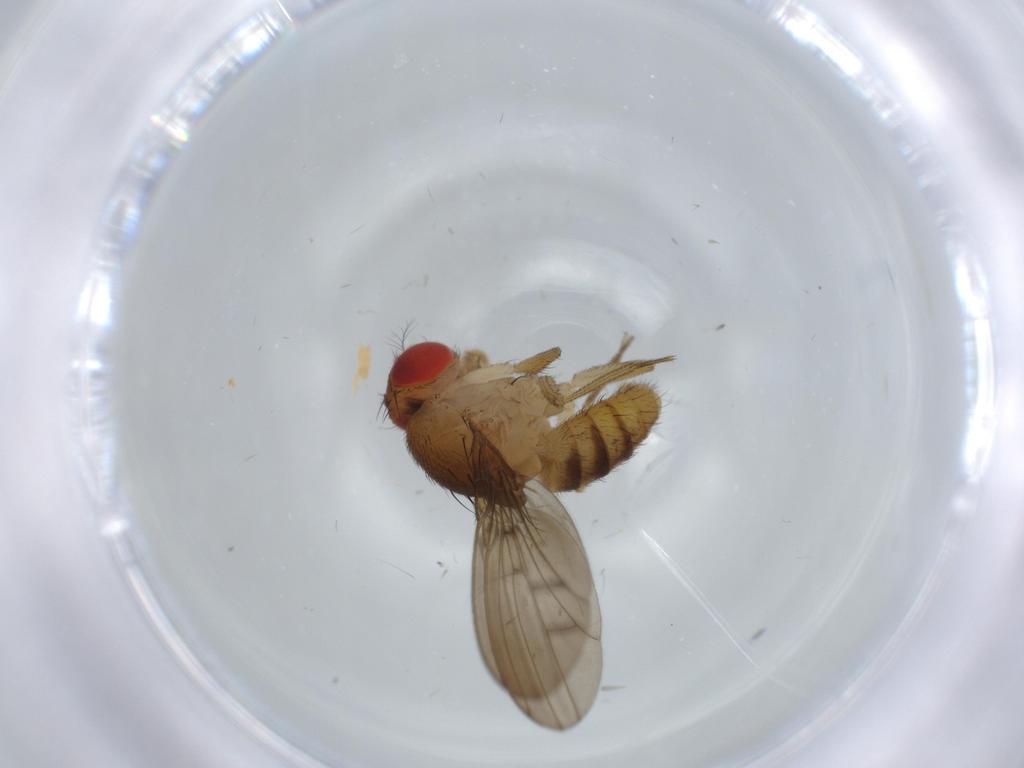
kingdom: Animalia
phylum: Arthropoda
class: Insecta
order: Diptera
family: Drosophilidae
